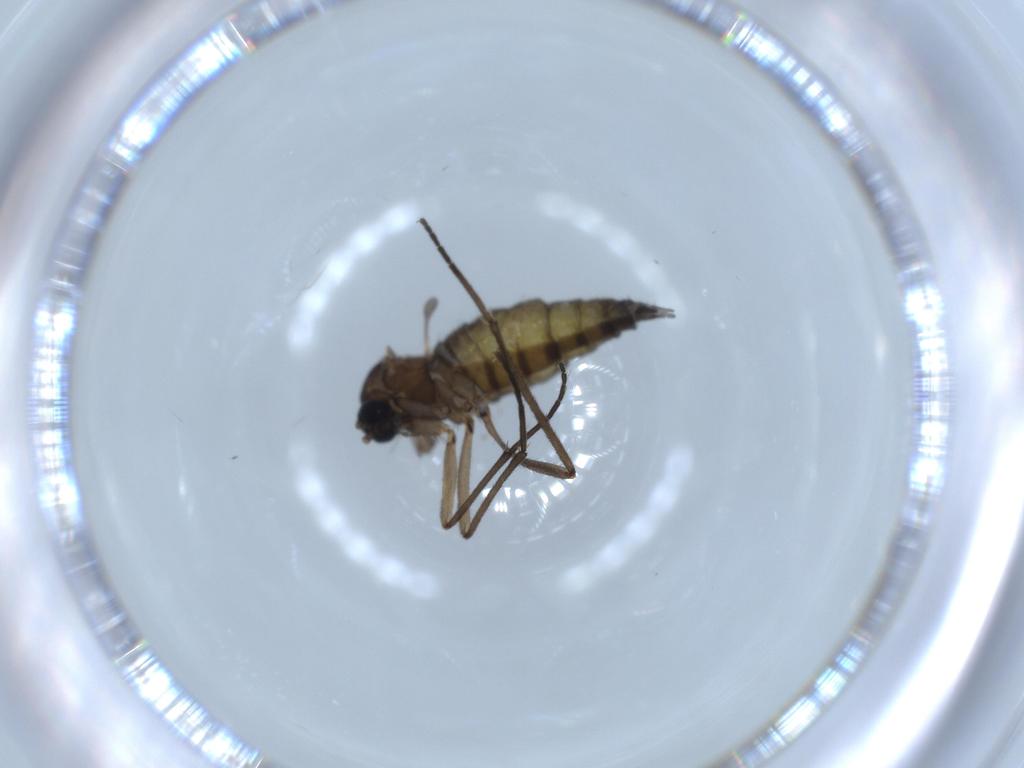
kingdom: Animalia
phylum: Arthropoda
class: Insecta
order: Diptera
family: Sciaridae
